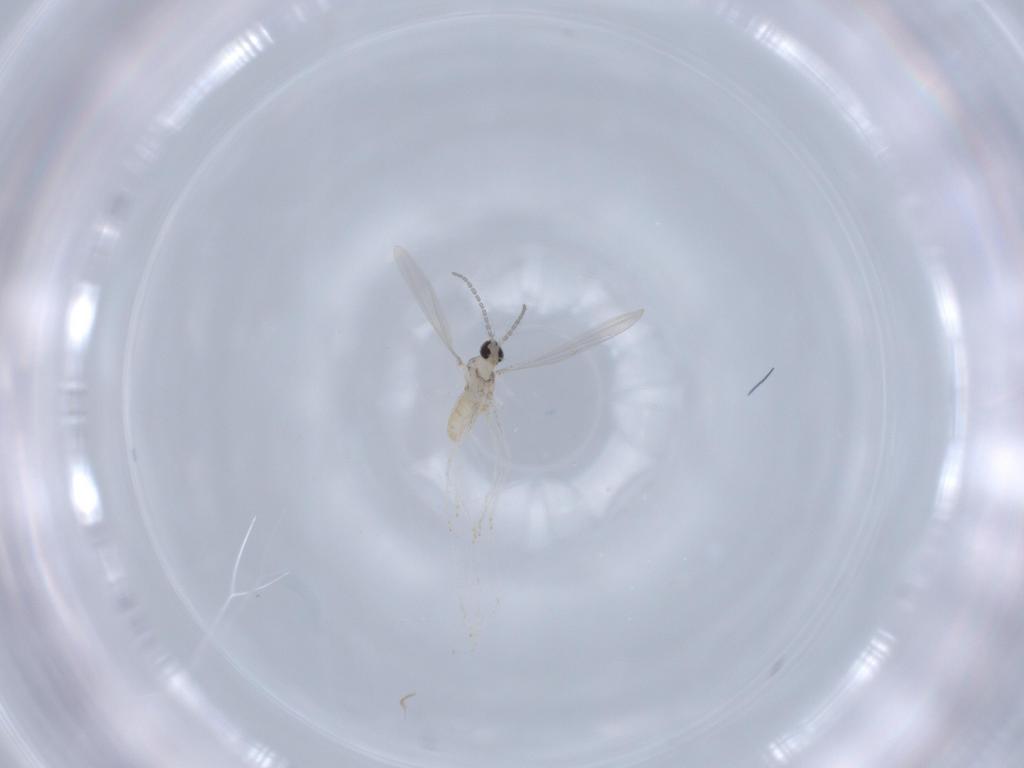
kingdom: Animalia
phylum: Arthropoda
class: Insecta
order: Diptera
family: Cecidomyiidae
